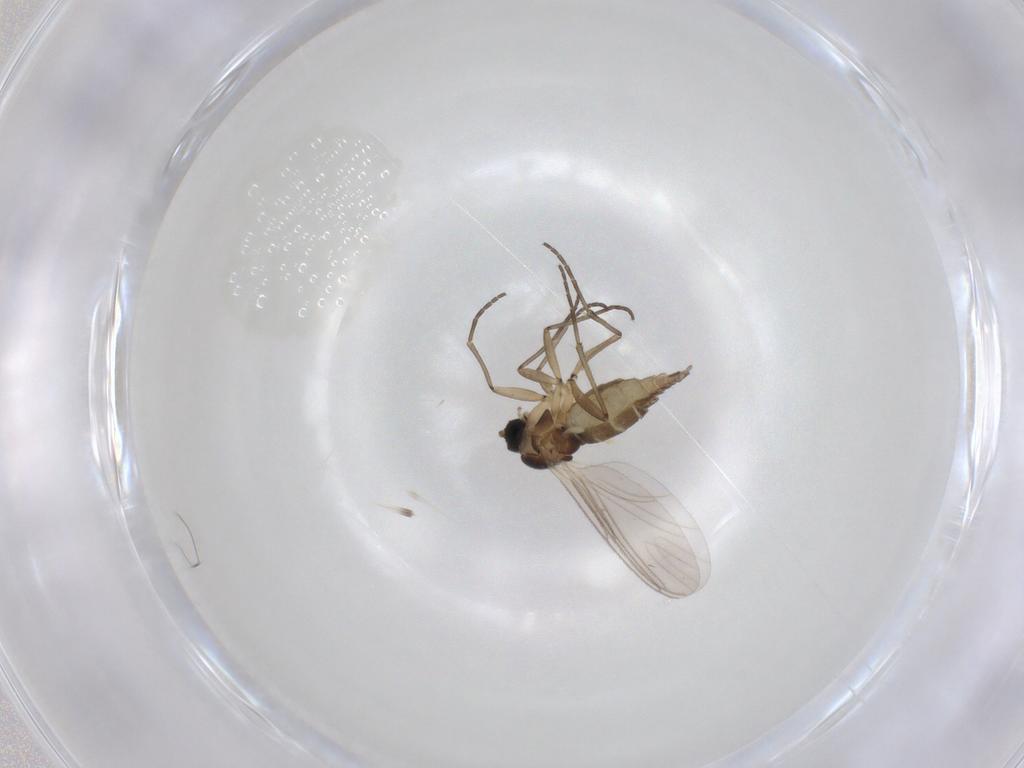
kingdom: Animalia
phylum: Arthropoda
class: Insecta
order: Diptera
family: Sciaridae
